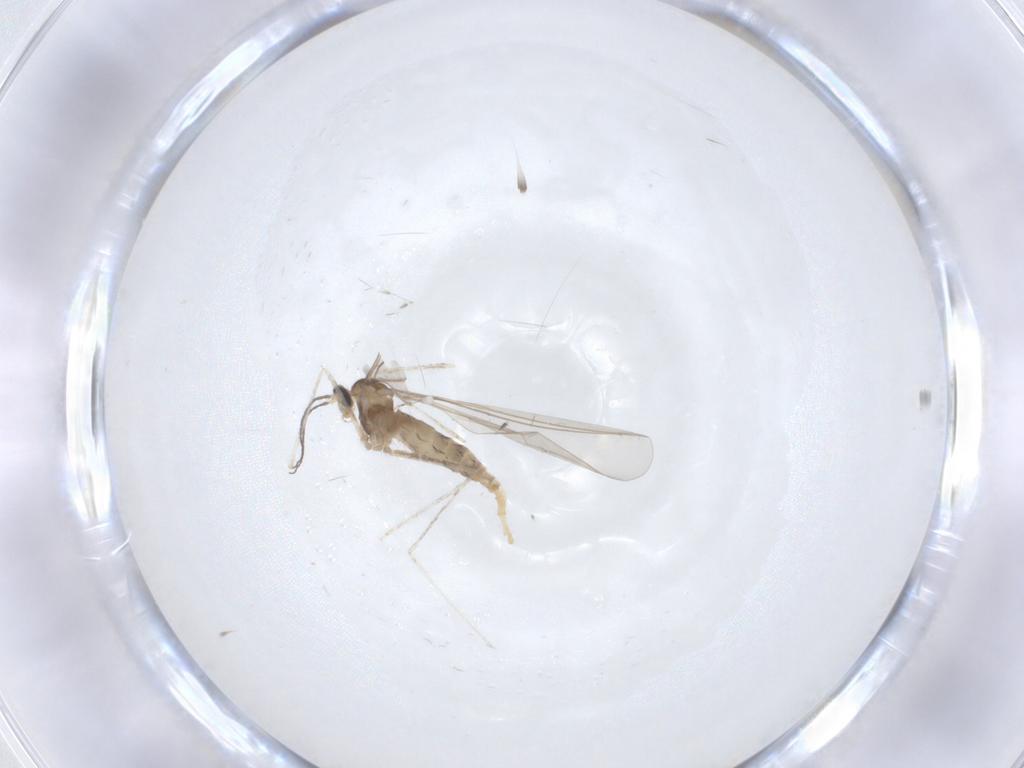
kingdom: Animalia
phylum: Arthropoda
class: Insecta
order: Diptera
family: Cecidomyiidae
